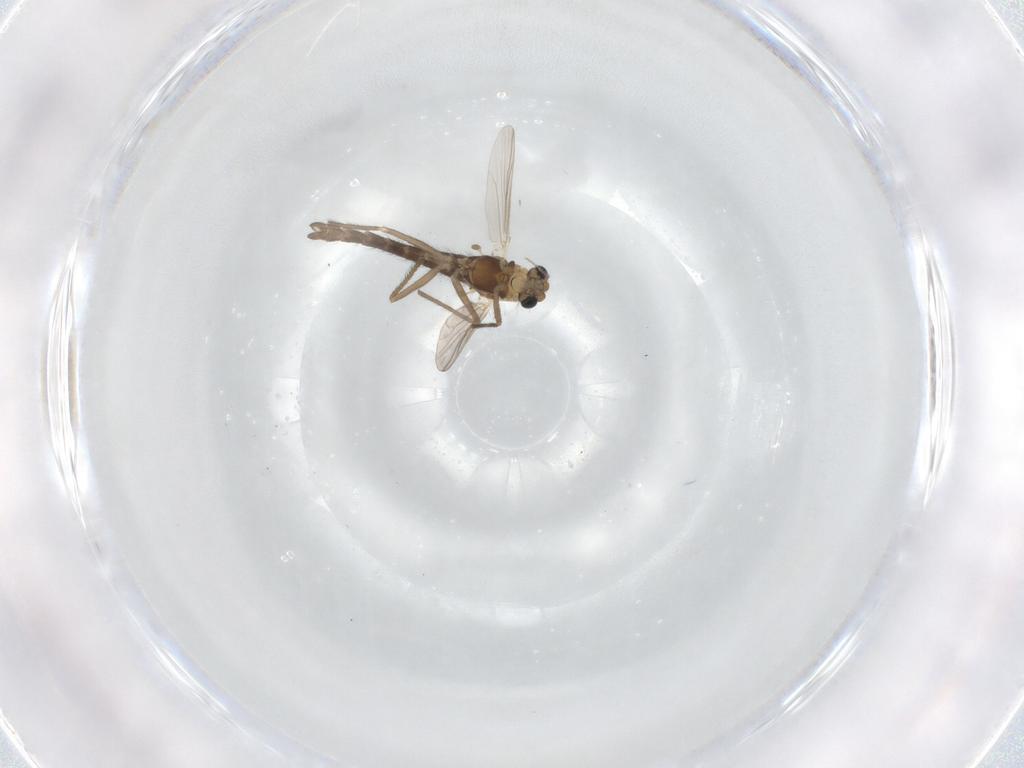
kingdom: Animalia
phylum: Arthropoda
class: Insecta
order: Diptera
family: Chironomidae
